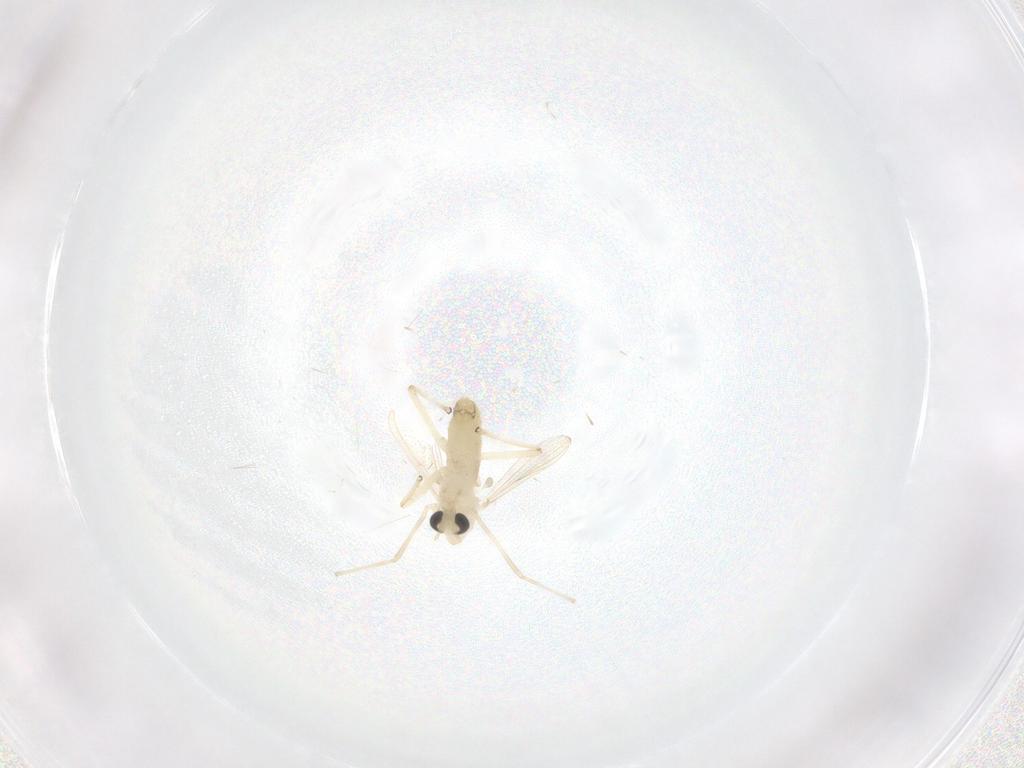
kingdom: Animalia
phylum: Arthropoda
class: Insecta
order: Diptera
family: Chironomidae
